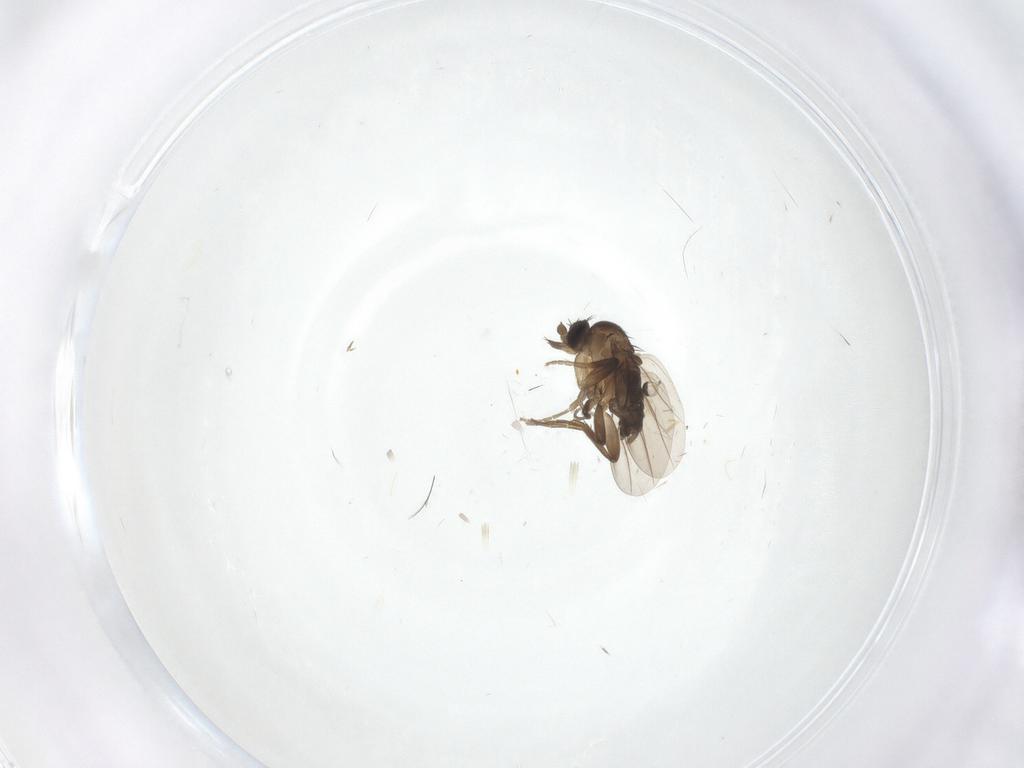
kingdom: Animalia
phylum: Arthropoda
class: Insecta
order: Diptera
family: Phoridae
